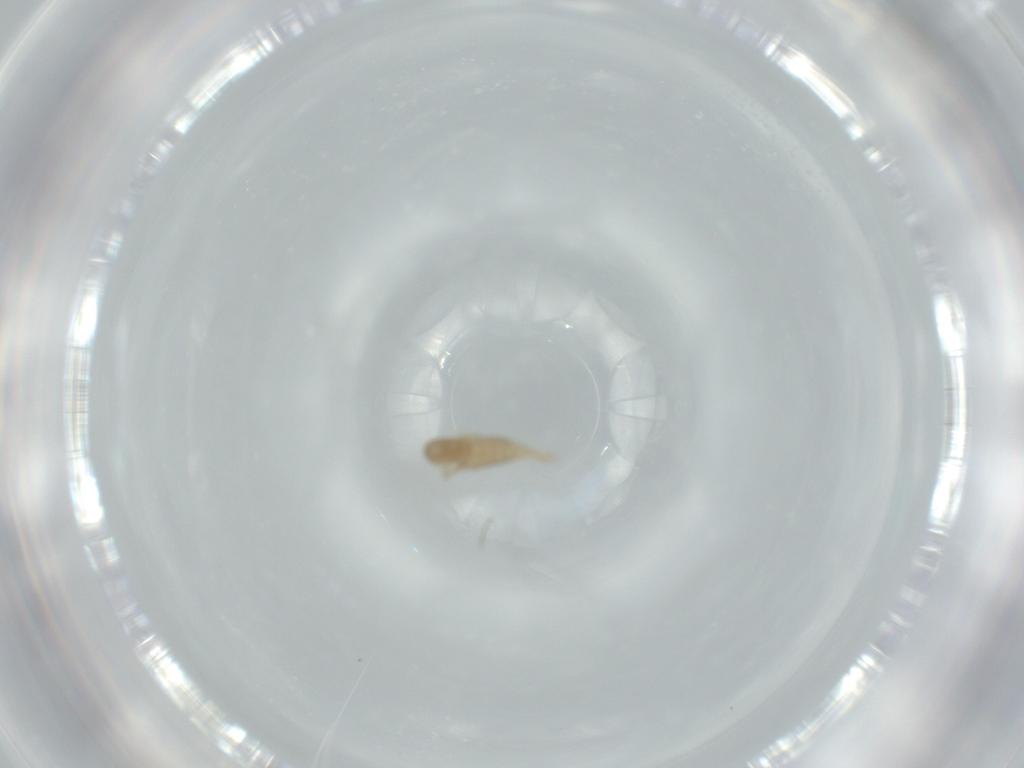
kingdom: Animalia
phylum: Arthropoda
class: Insecta
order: Diptera
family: Cecidomyiidae
